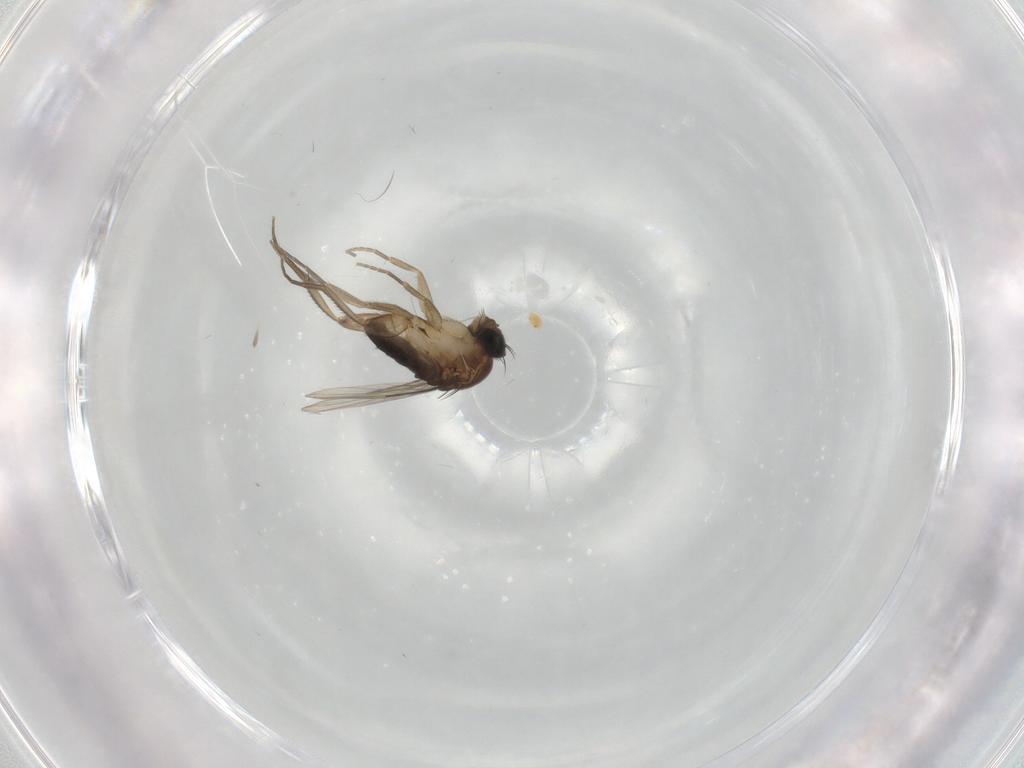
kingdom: Animalia
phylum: Arthropoda
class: Insecta
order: Diptera
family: Phoridae
